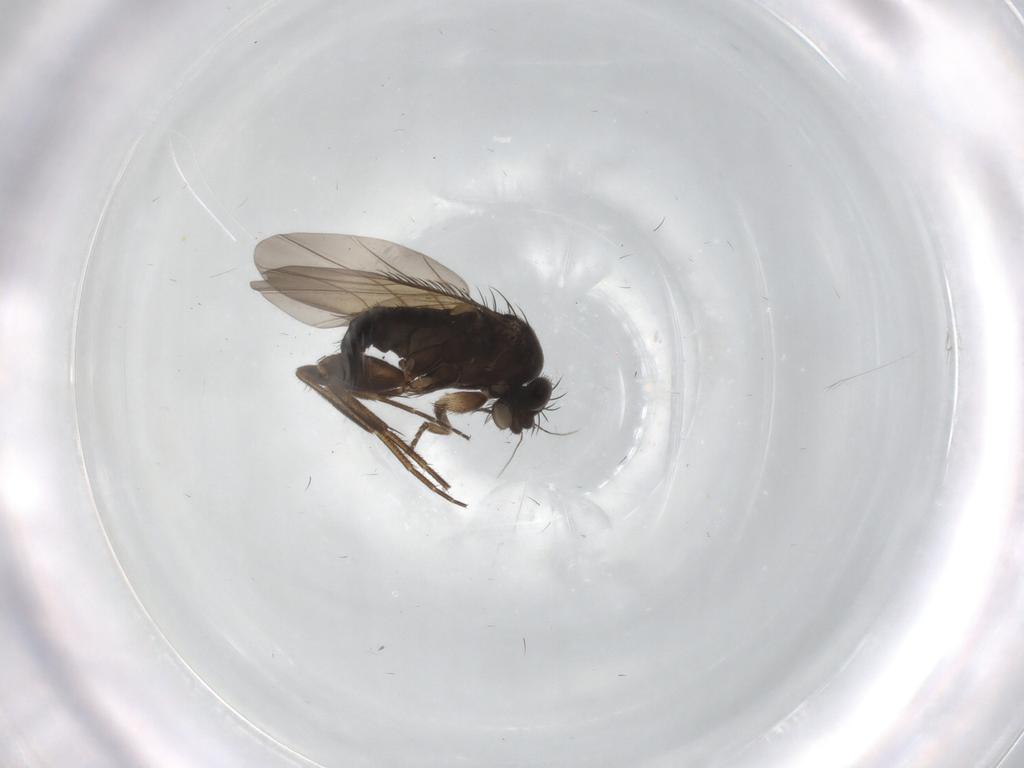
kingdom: Animalia
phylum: Arthropoda
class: Insecta
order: Diptera
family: Phoridae
